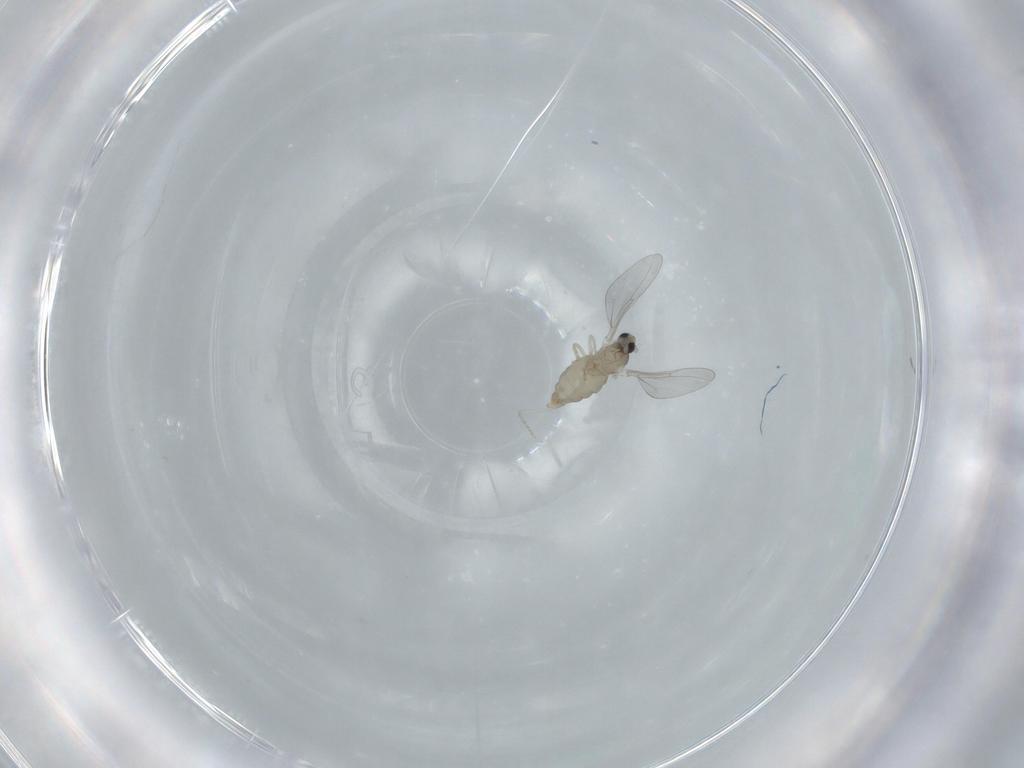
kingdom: Animalia
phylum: Arthropoda
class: Insecta
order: Diptera
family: Cecidomyiidae
